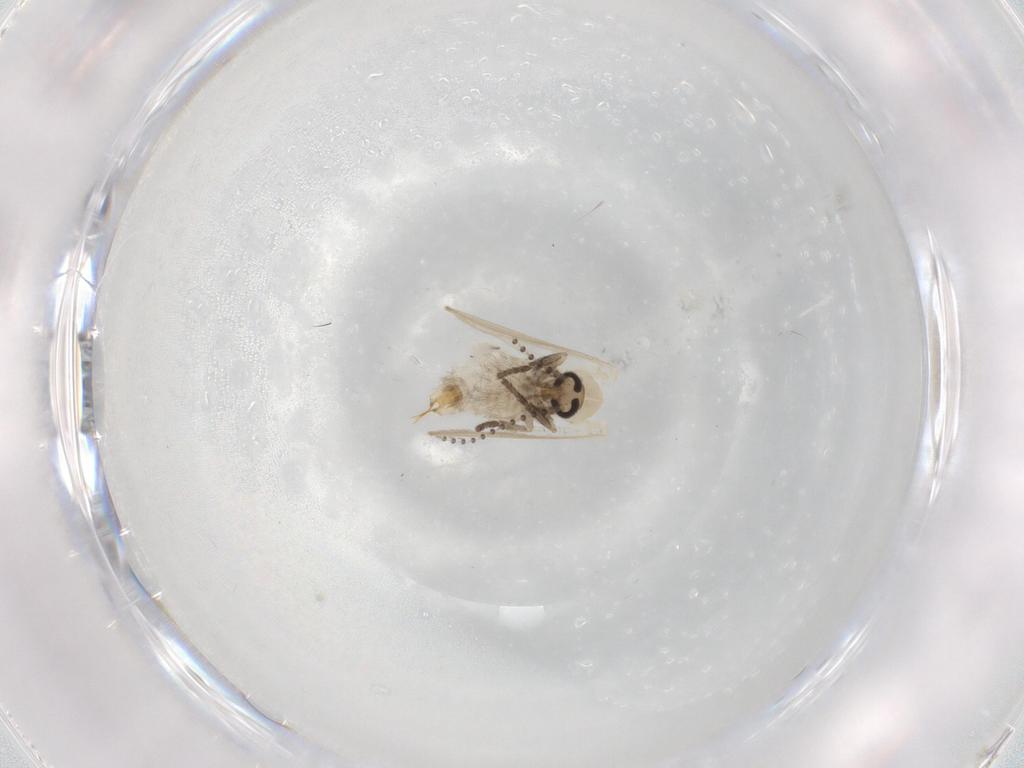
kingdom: Animalia
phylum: Arthropoda
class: Insecta
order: Diptera
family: Psychodidae
